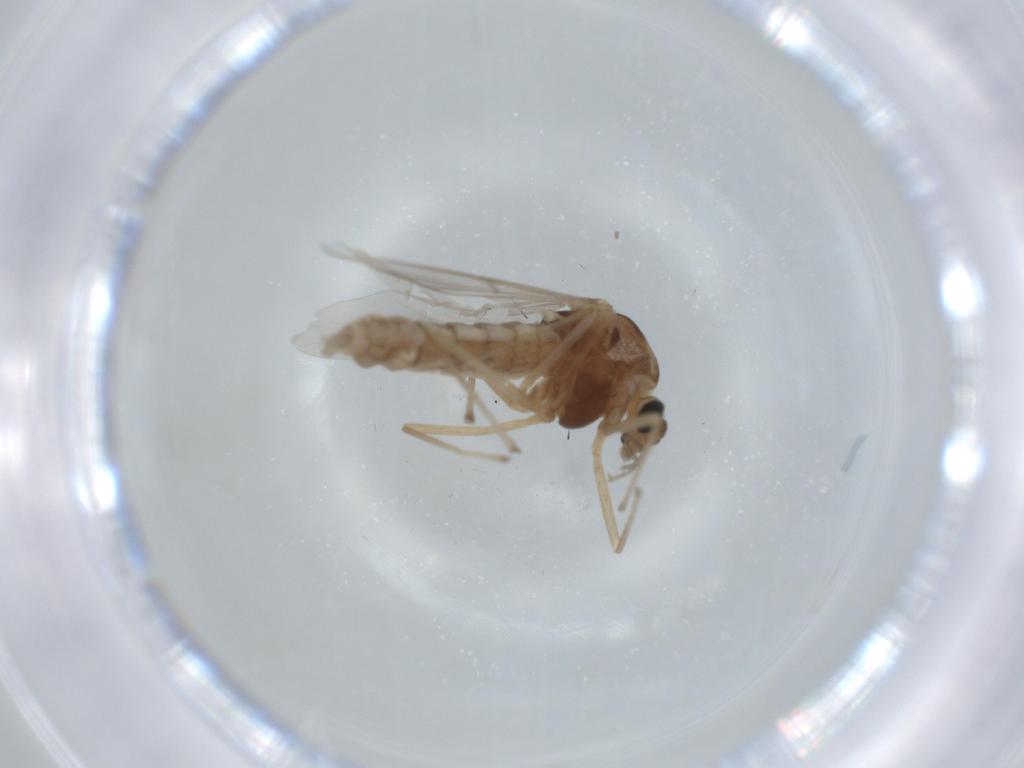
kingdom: Animalia
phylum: Arthropoda
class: Insecta
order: Diptera
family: Chironomidae
